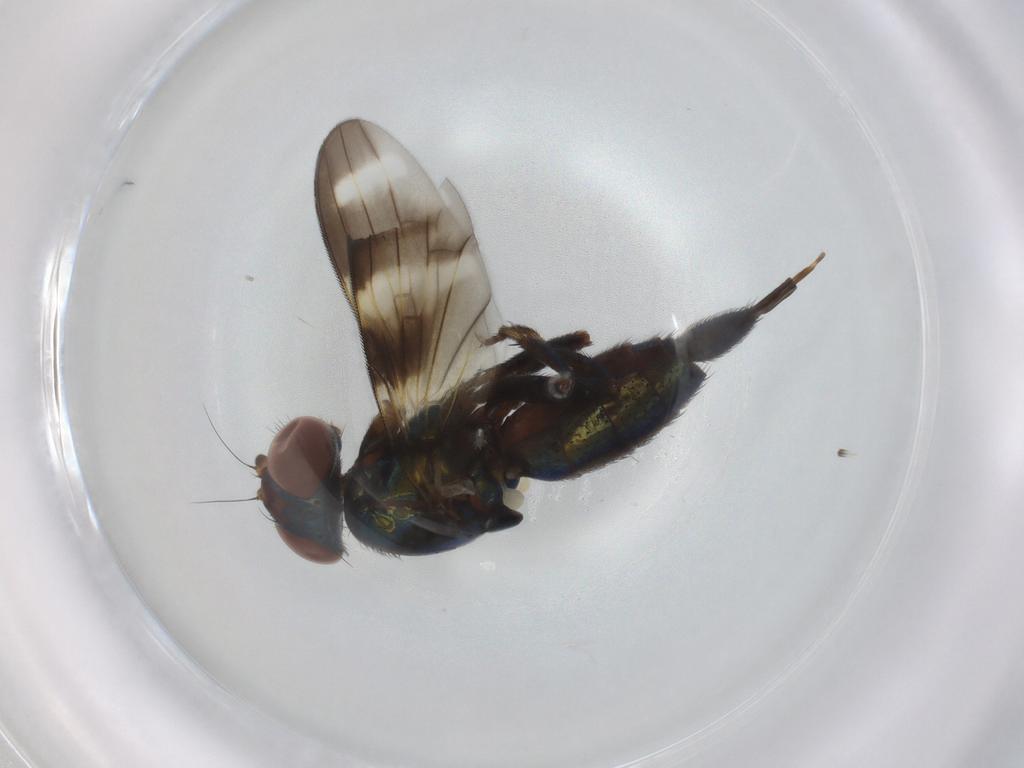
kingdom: Animalia
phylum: Arthropoda
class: Insecta
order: Diptera
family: Ulidiidae
